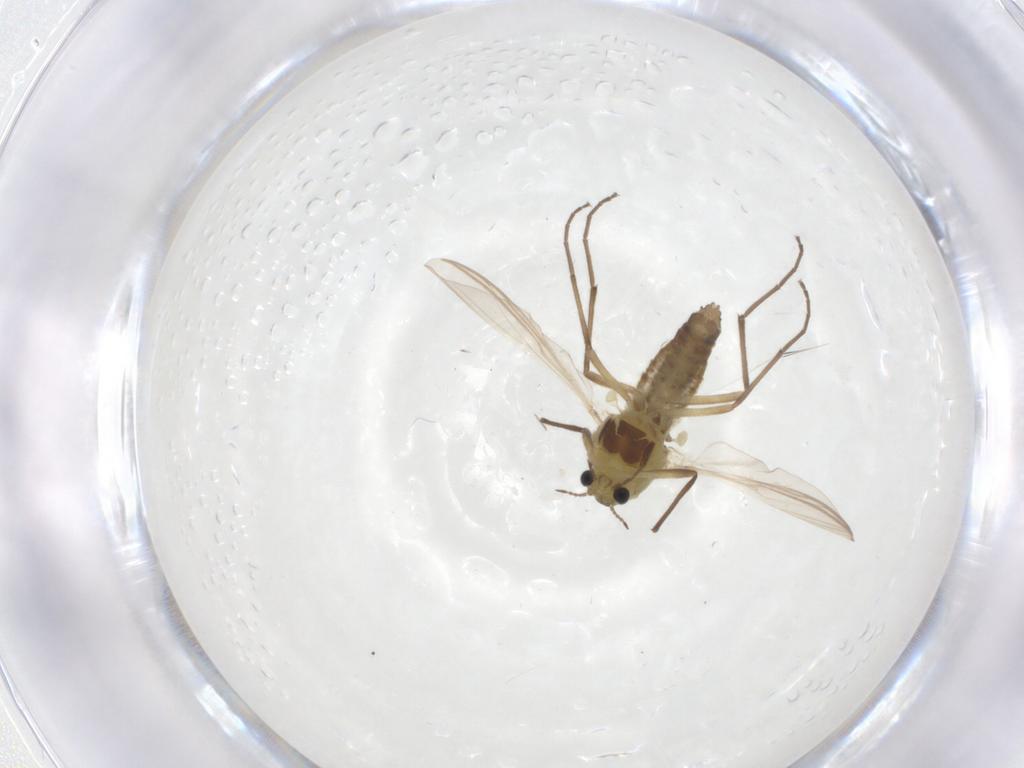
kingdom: Animalia
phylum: Arthropoda
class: Insecta
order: Diptera
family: Chironomidae
